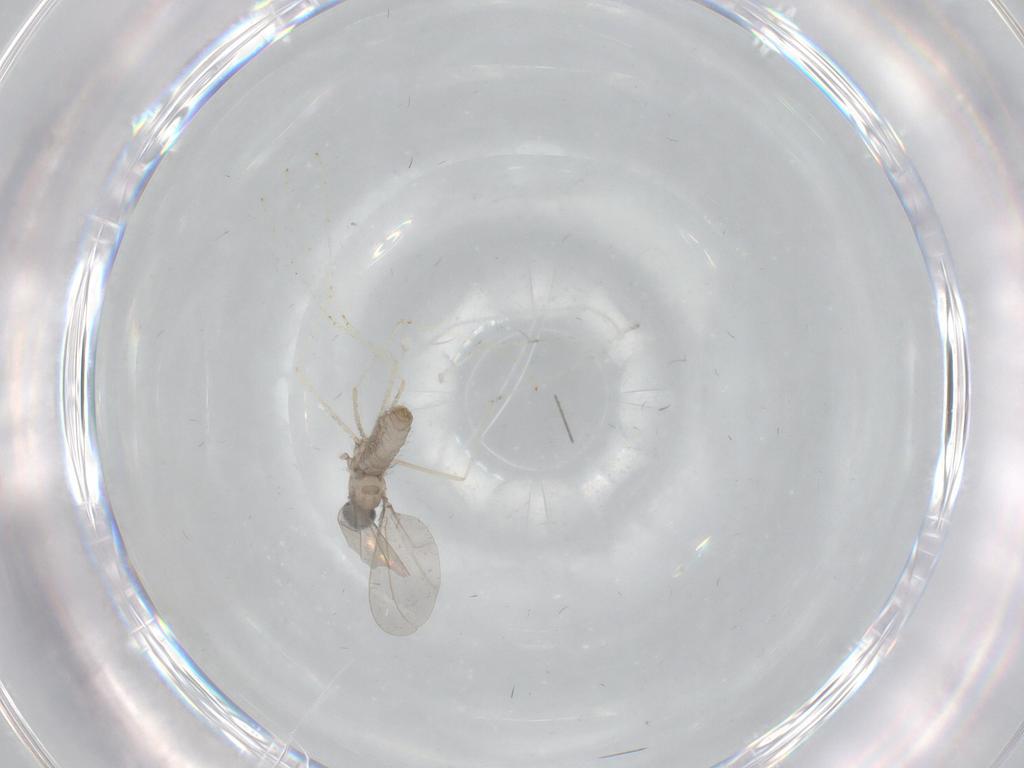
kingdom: Animalia
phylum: Arthropoda
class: Insecta
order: Diptera
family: Cecidomyiidae
